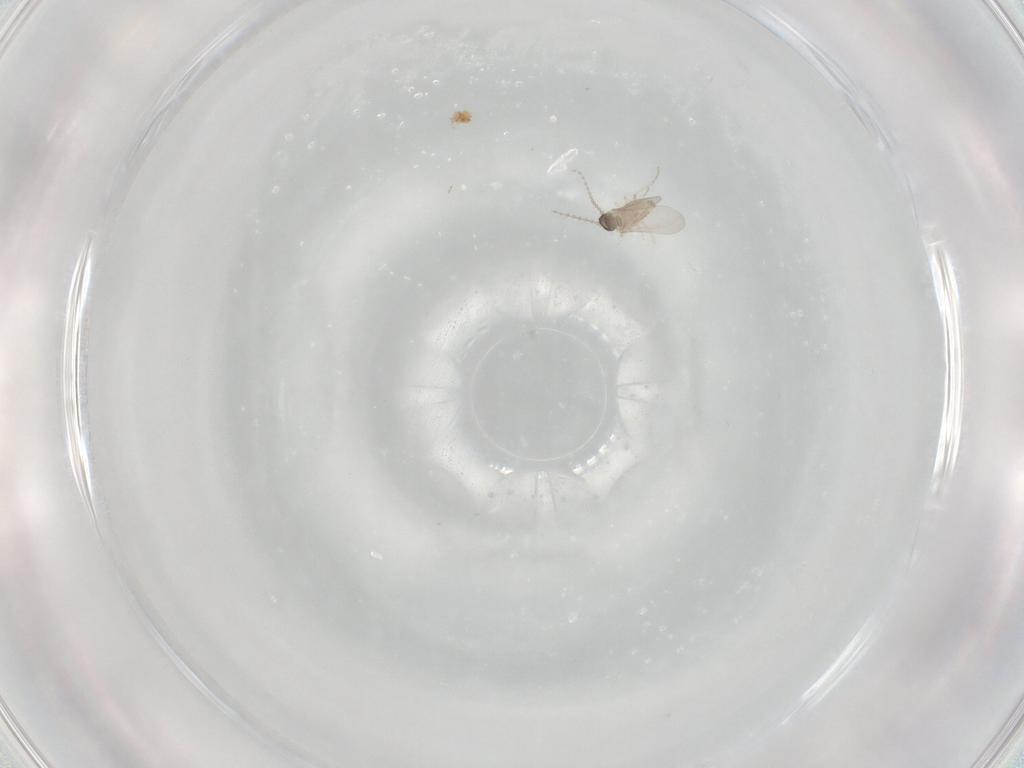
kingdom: Animalia
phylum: Arthropoda
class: Insecta
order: Diptera
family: Cecidomyiidae
